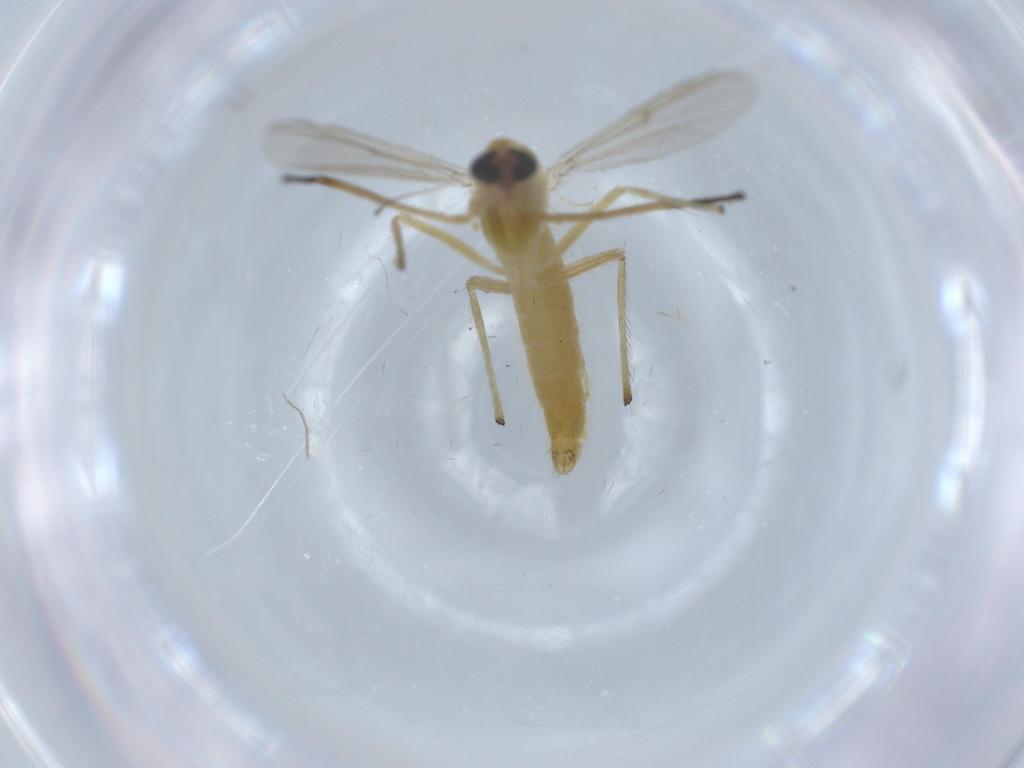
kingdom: Animalia
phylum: Arthropoda
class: Insecta
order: Diptera
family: Chironomidae
